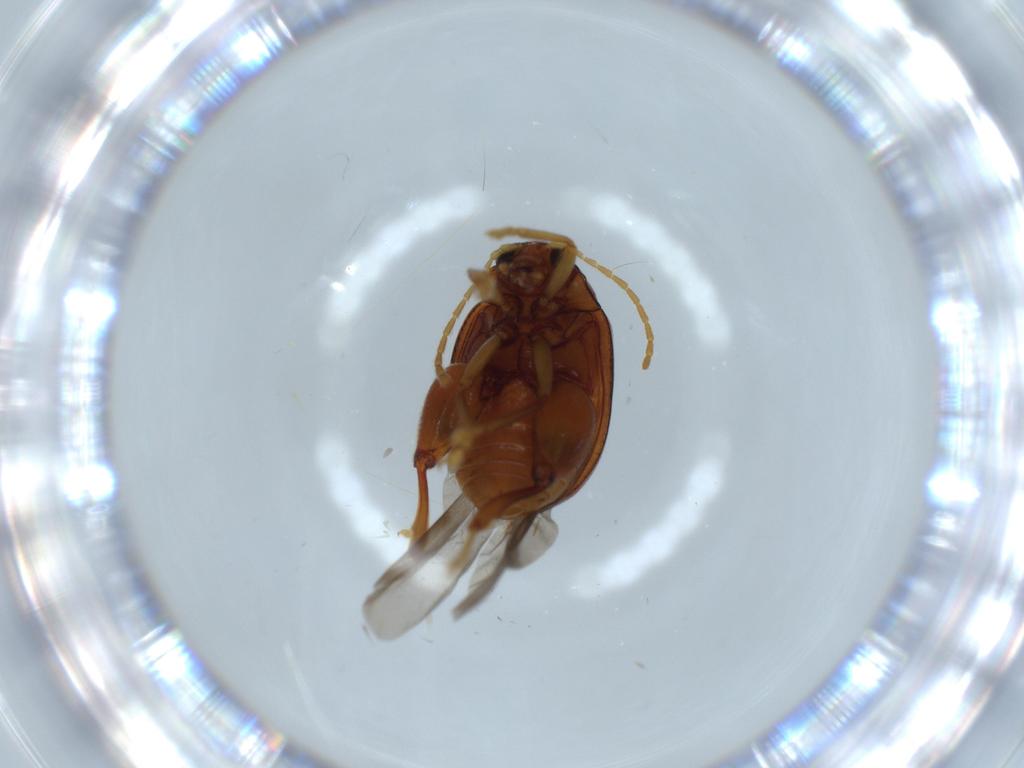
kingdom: Animalia
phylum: Arthropoda
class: Insecta
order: Coleoptera
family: Chrysomelidae
